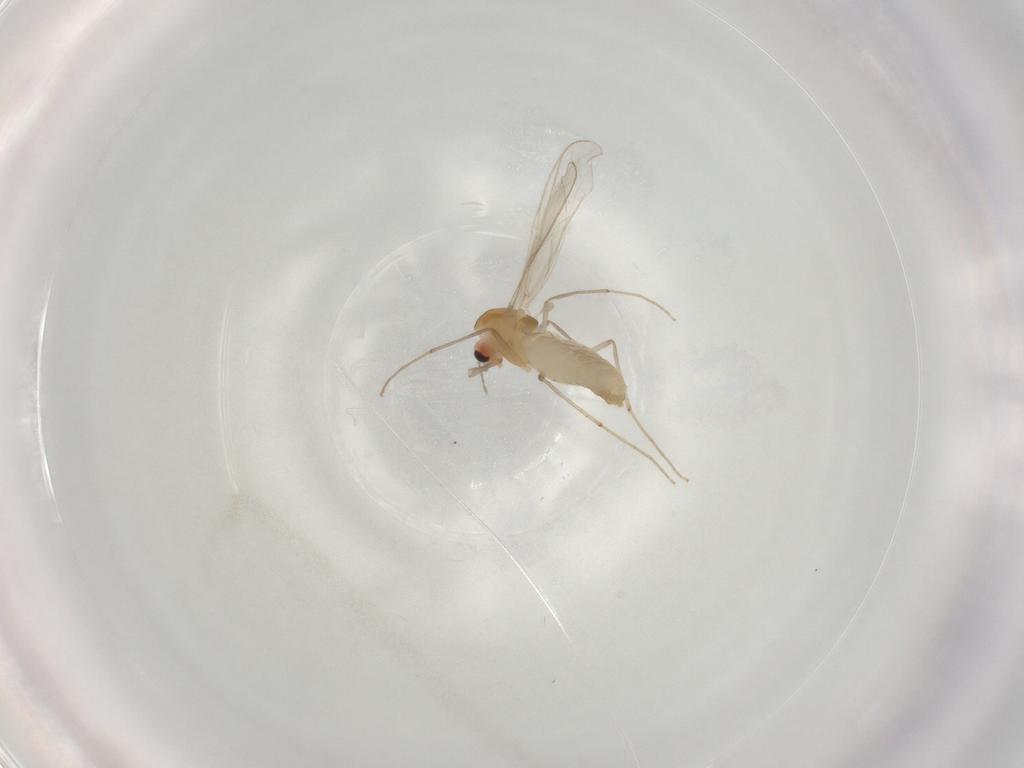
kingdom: Animalia
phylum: Arthropoda
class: Insecta
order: Diptera
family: Chironomidae
